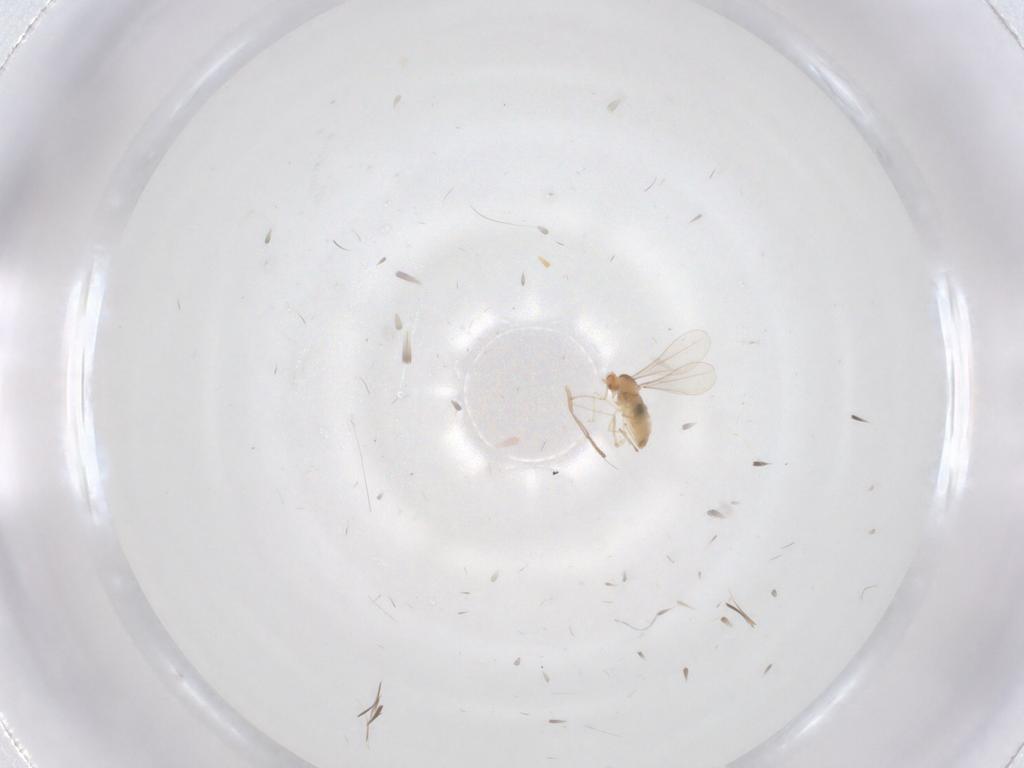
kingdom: Animalia
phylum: Arthropoda
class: Insecta
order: Diptera
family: Psychodidae
